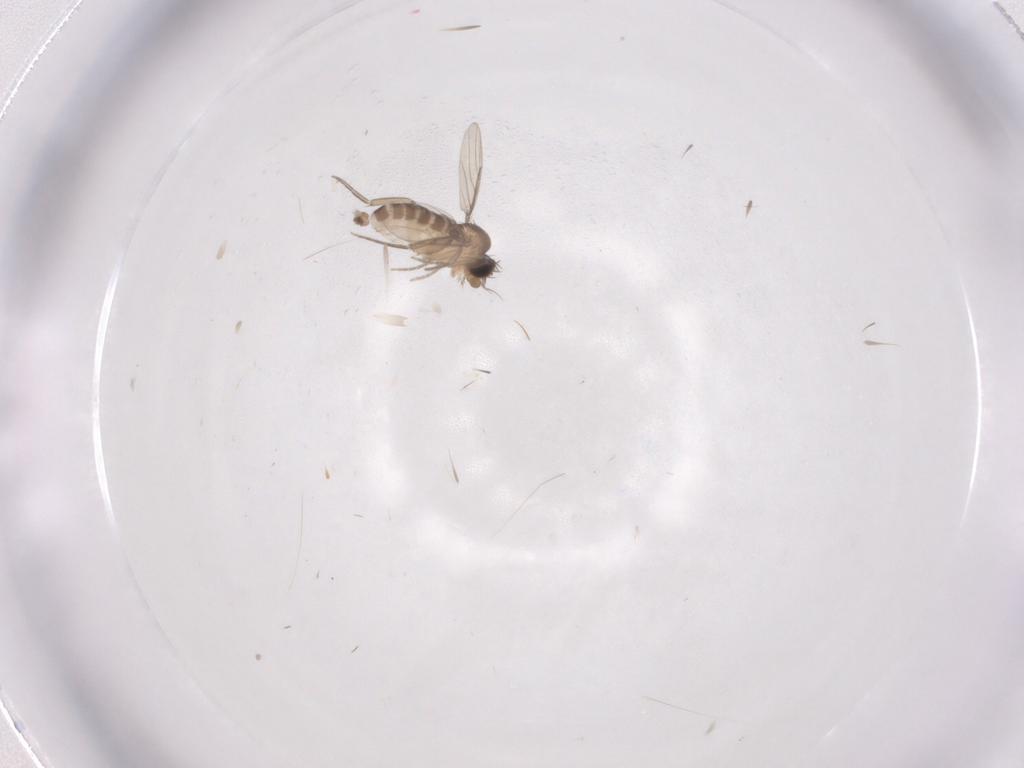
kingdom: Animalia
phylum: Arthropoda
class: Insecta
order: Diptera
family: Phoridae
